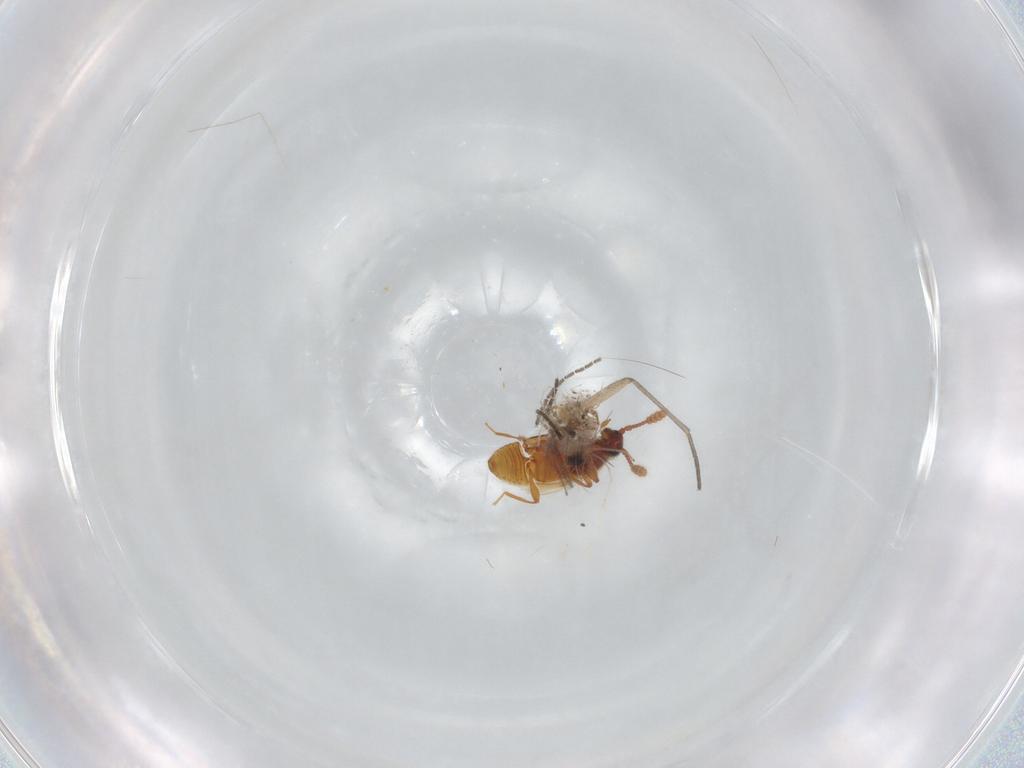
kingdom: Animalia
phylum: Arthropoda
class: Insecta
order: Coleoptera
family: Staphylinidae
